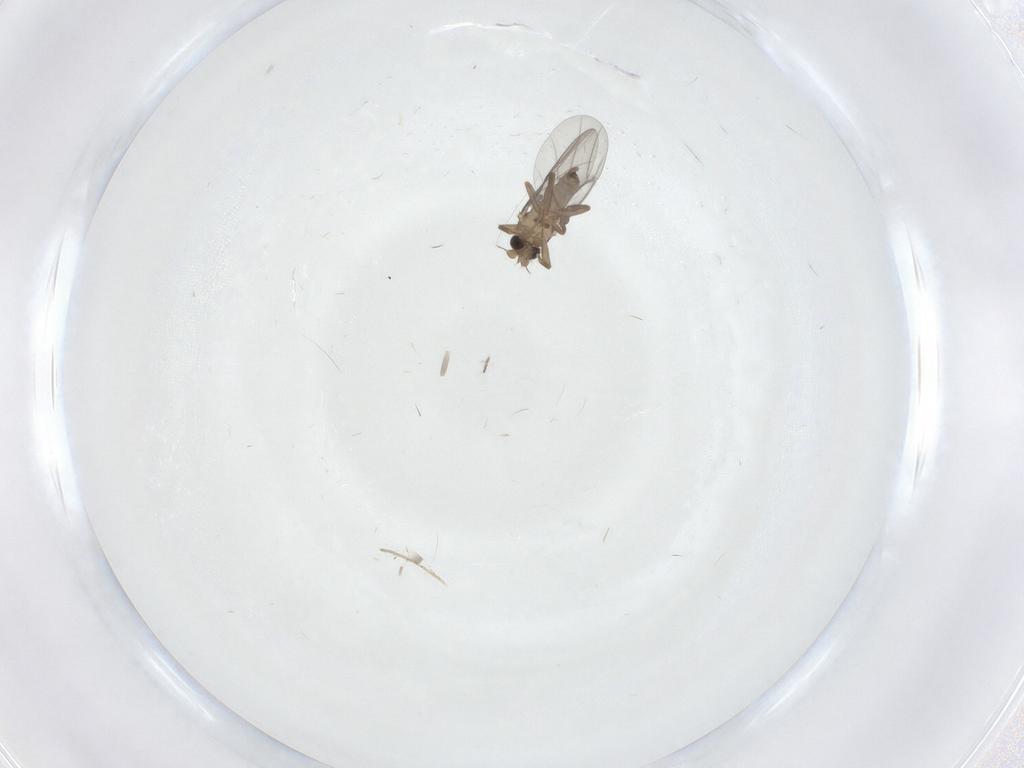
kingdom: Animalia
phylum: Arthropoda
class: Insecta
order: Diptera
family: Chironomidae
